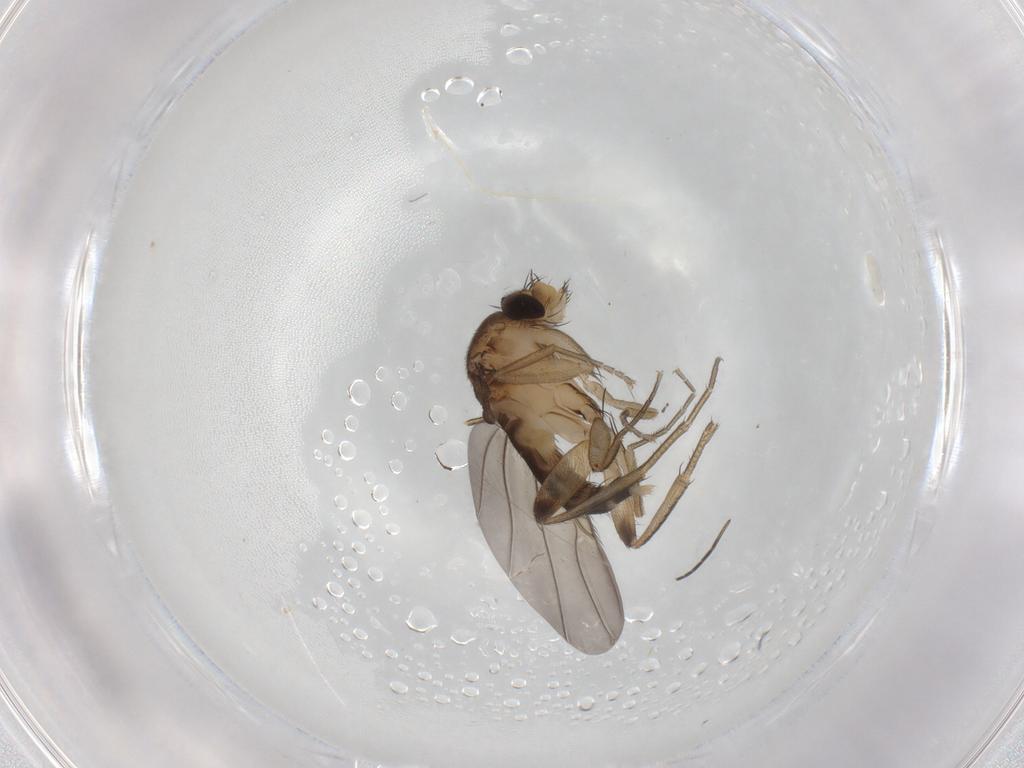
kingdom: Animalia
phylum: Arthropoda
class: Insecta
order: Diptera
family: Phoridae
